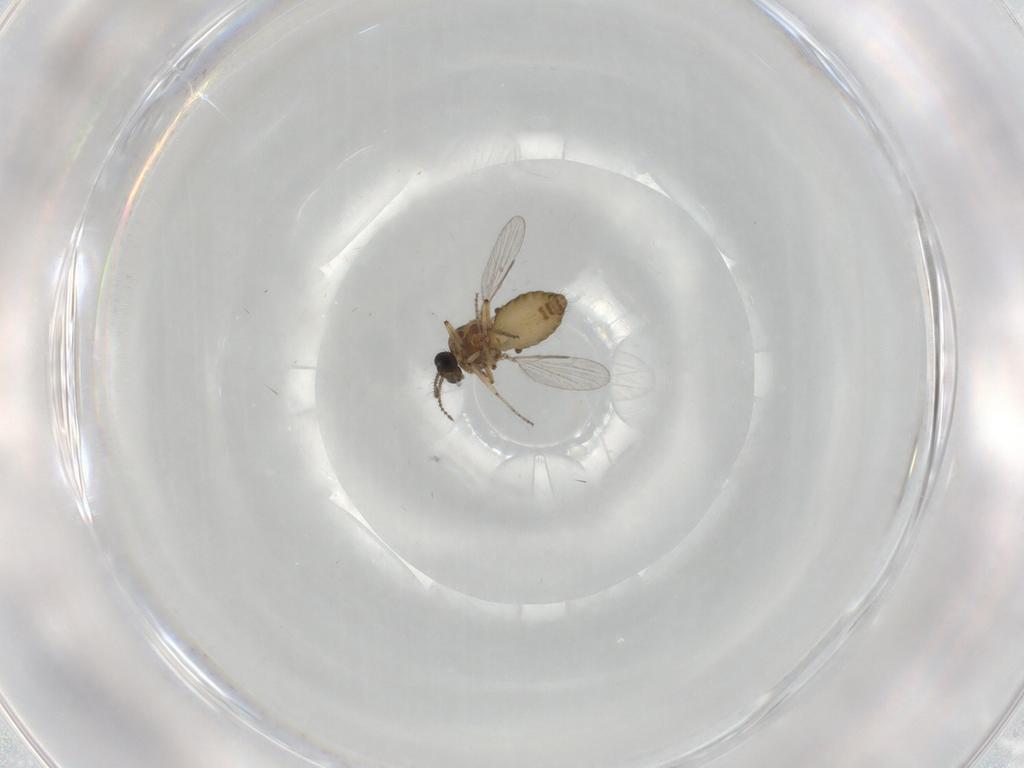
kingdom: Animalia
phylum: Arthropoda
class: Insecta
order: Diptera
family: Ceratopogonidae
